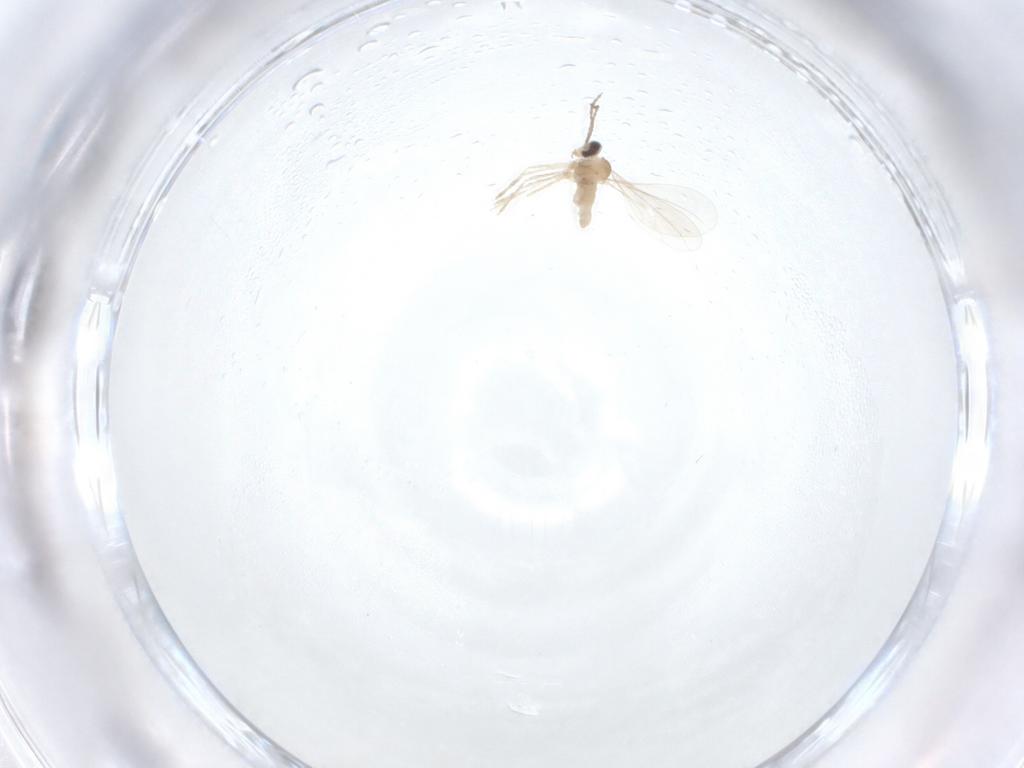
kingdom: Animalia
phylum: Arthropoda
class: Insecta
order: Diptera
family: Cecidomyiidae
